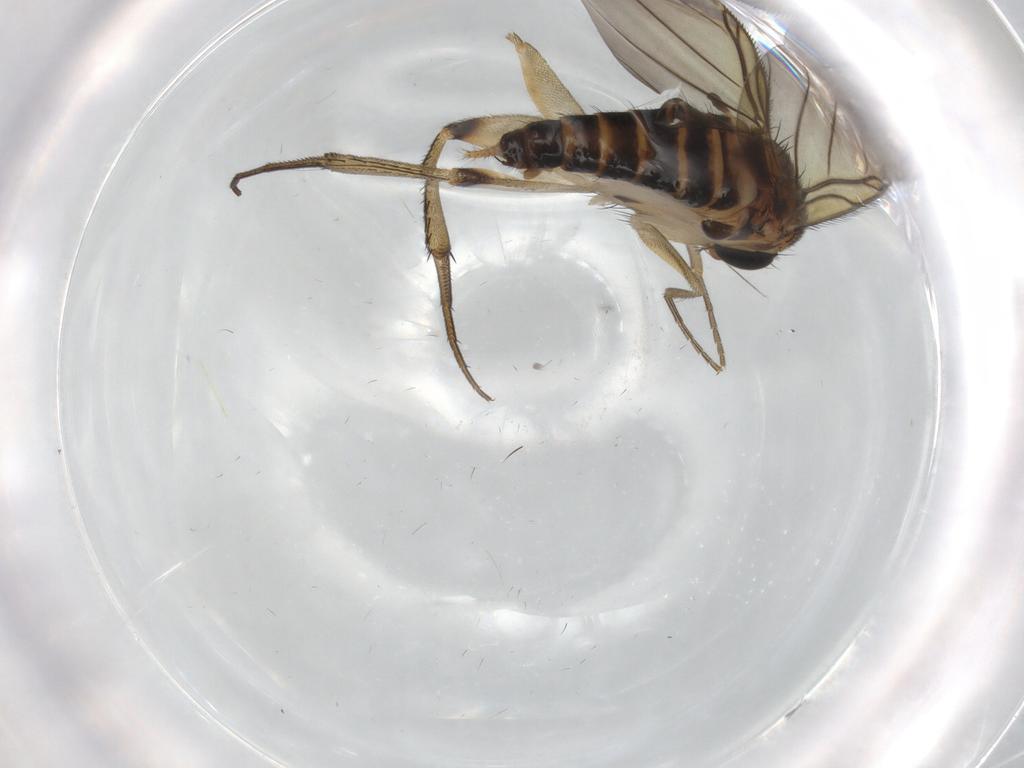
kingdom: Animalia
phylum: Arthropoda
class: Insecta
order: Diptera
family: Phoridae
